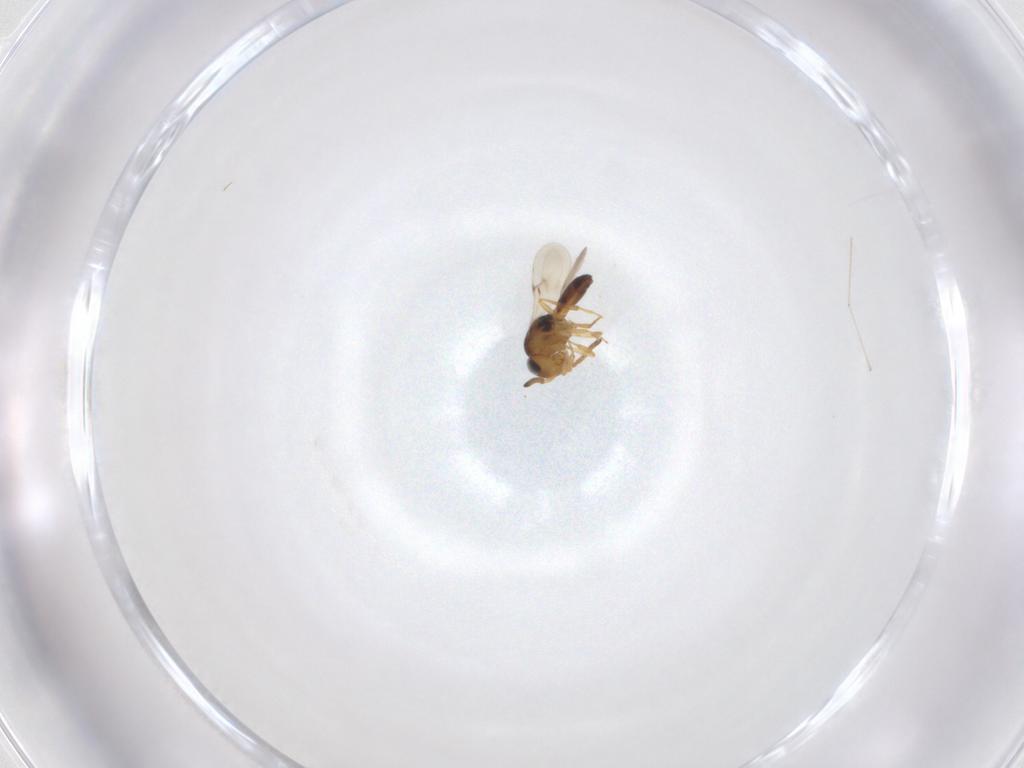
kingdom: Animalia
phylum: Arthropoda
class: Insecta
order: Hymenoptera
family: Scelionidae
